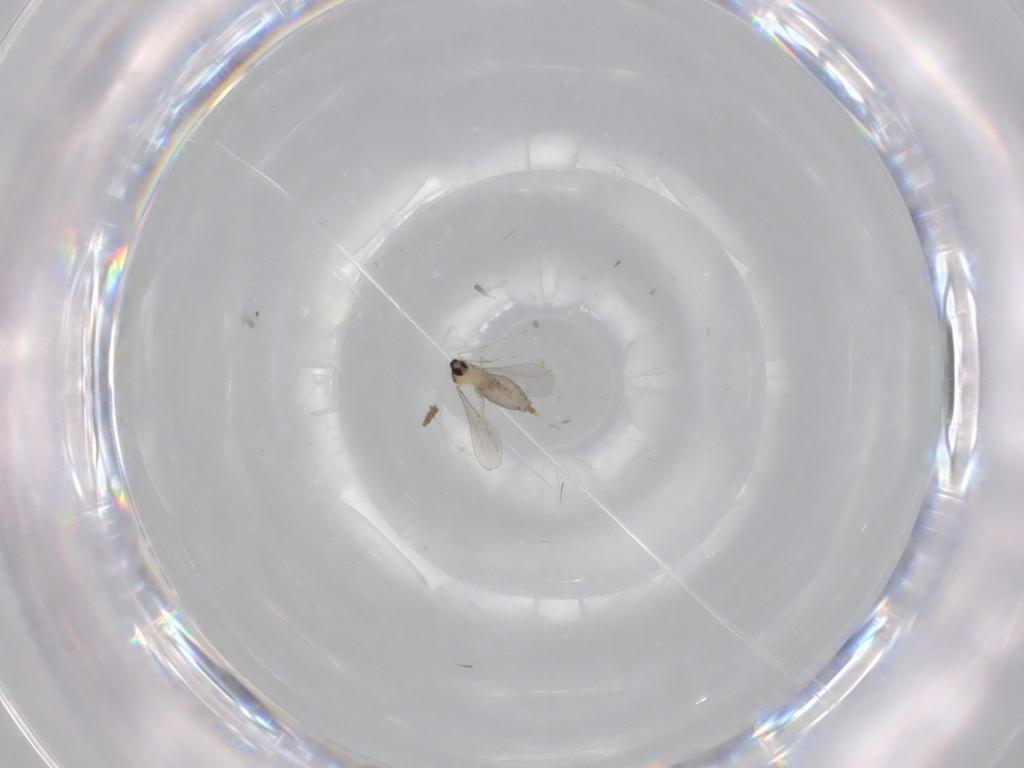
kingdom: Animalia
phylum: Arthropoda
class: Insecta
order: Diptera
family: Cecidomyiidae
